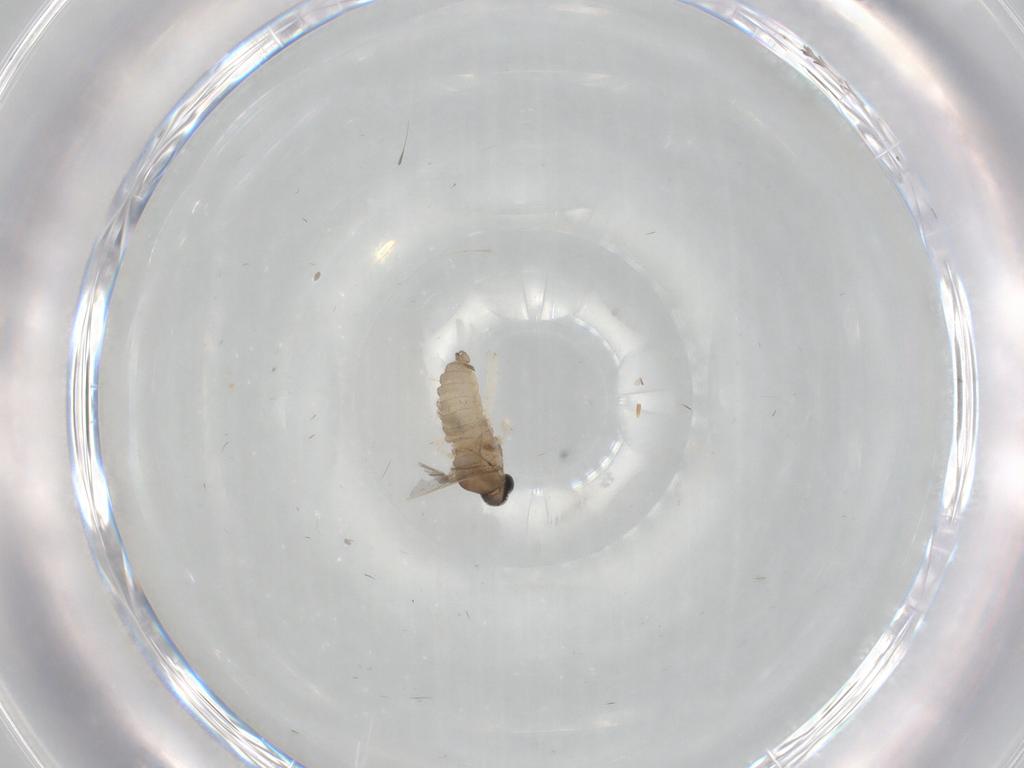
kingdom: Animalia
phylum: Arthropoda
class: Insecta
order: Diptera
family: Cecidomyiidae
